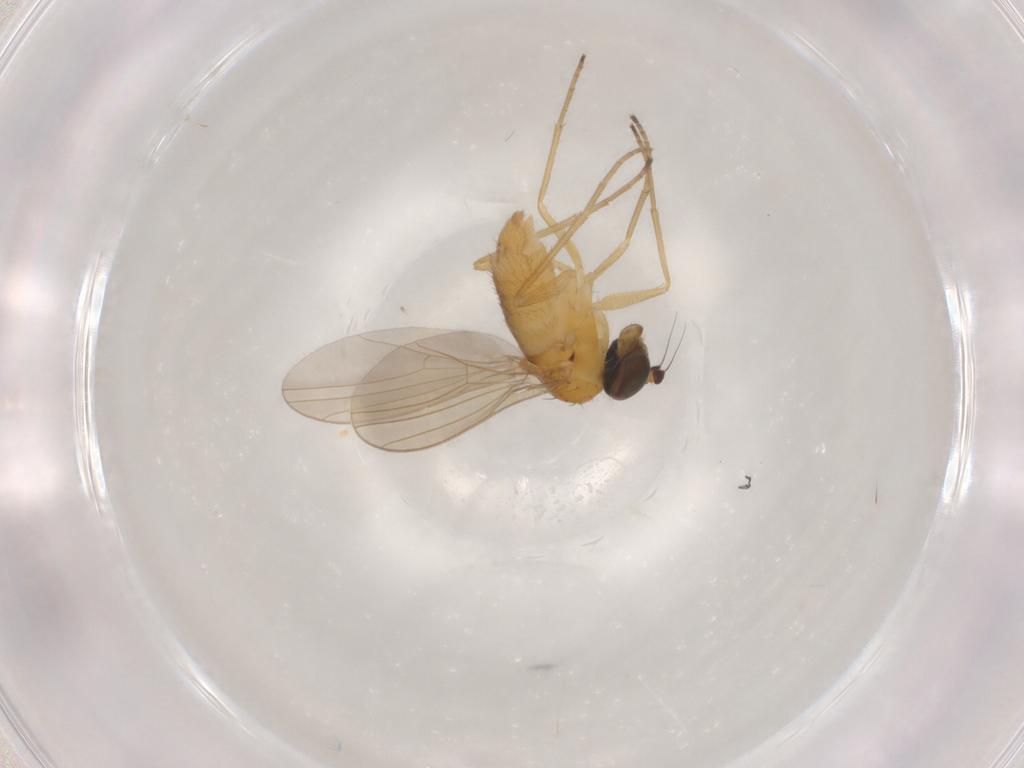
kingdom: Animalia
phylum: Arthropoda
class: Insecta
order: Diptera
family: Dolichopodidae
